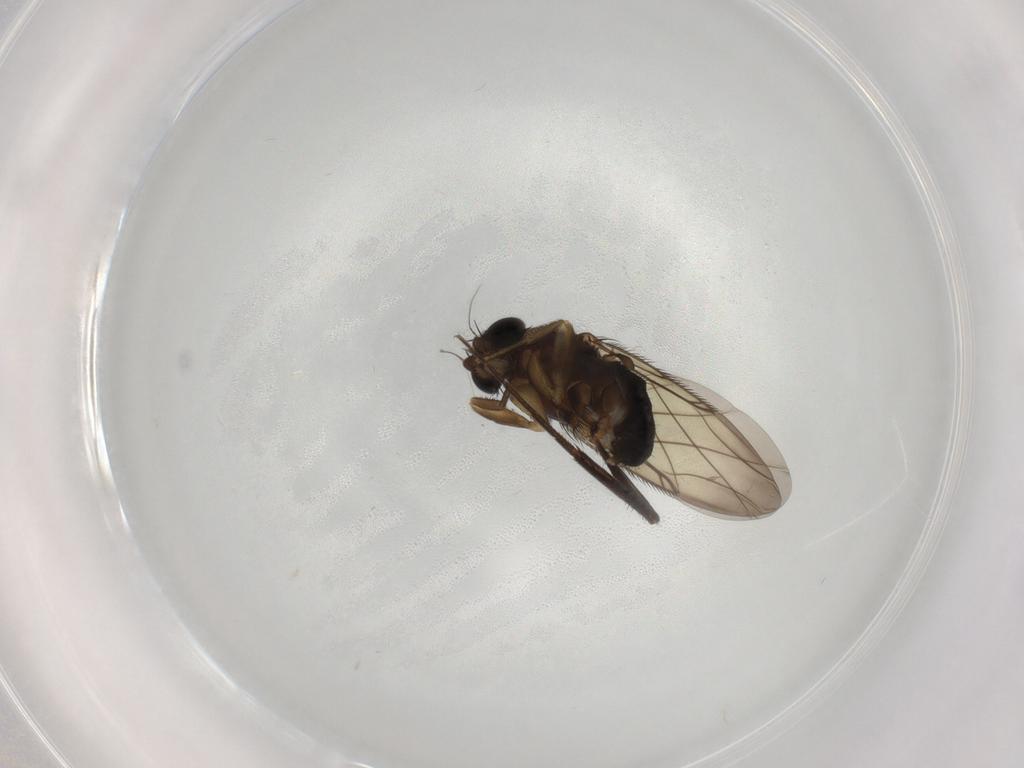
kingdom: Animalia
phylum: Arthropoda
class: Insecta
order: Diptera
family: Phoridae
